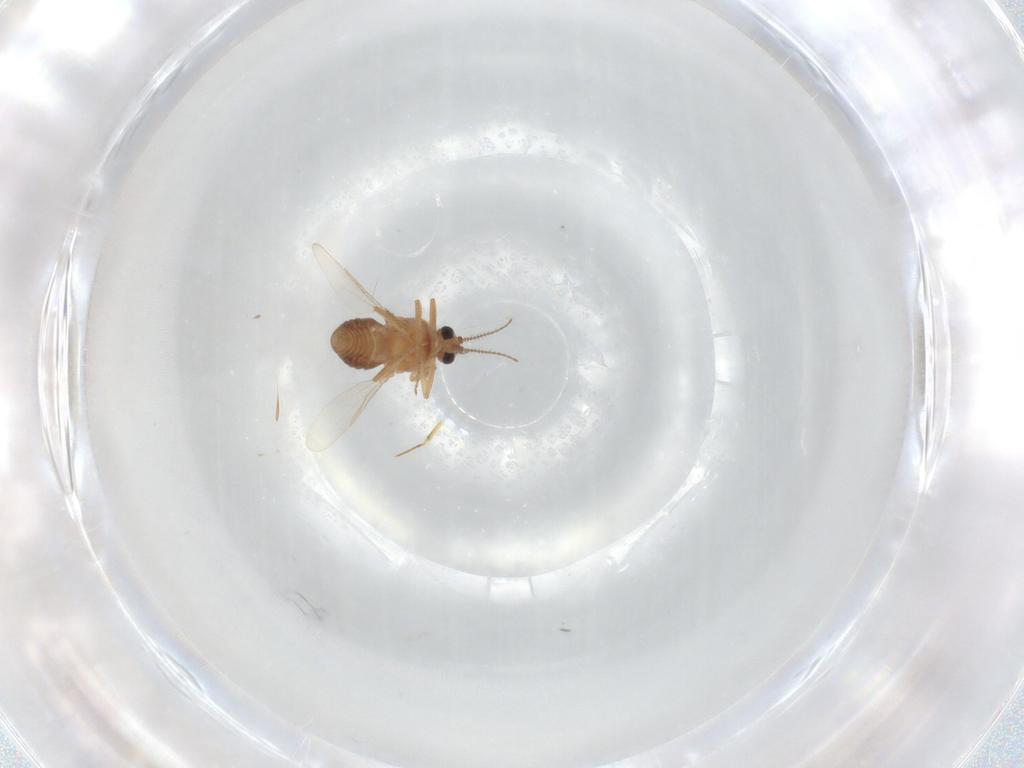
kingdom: Animalia
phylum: Arthropoda
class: Insecta
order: Diptera
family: Ceratopogonidae
